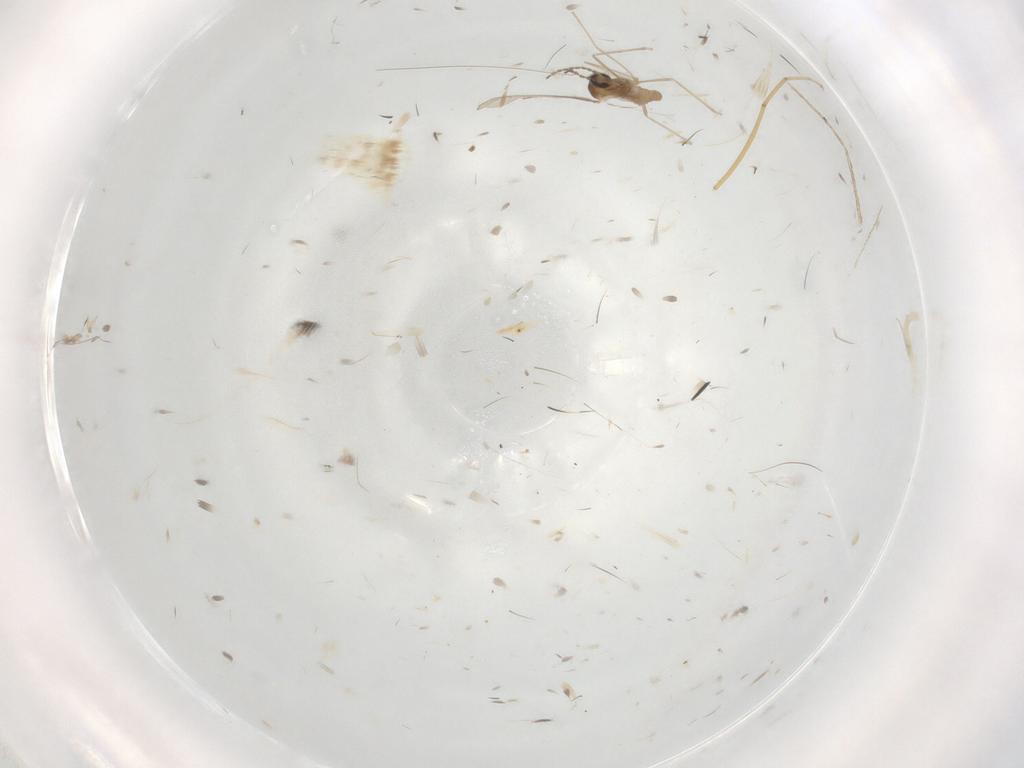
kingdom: Animalia
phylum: Arthropoda
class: Insecta
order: Diptera
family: Cecidomyiidae
